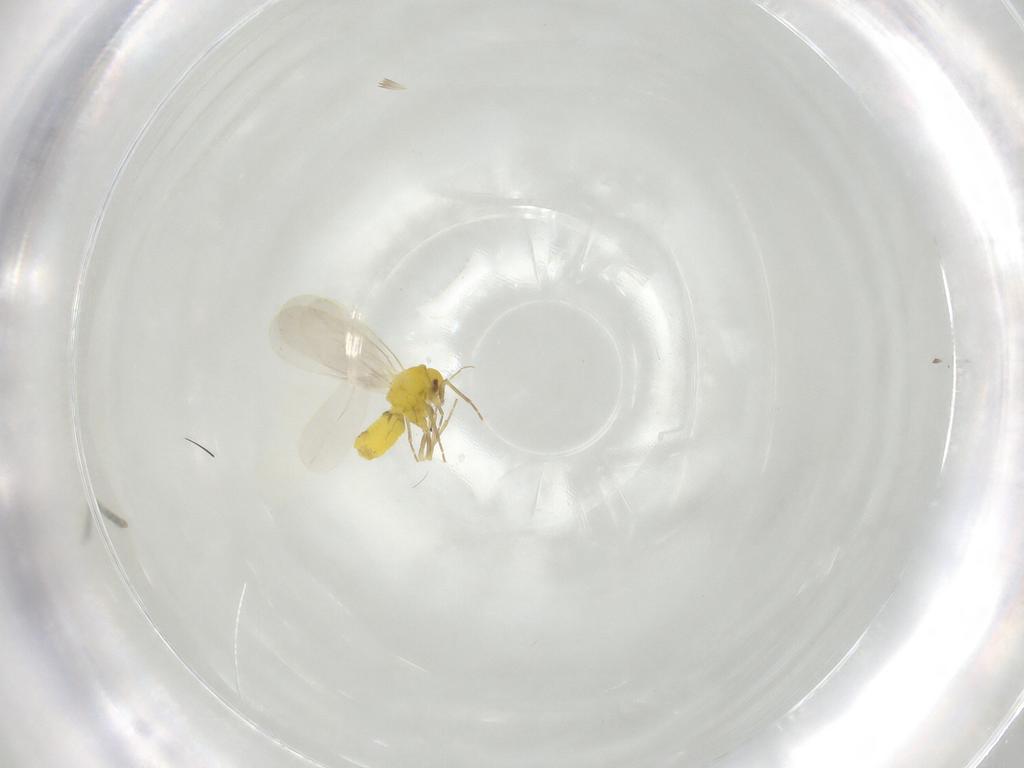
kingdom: Animalia
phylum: Arthropoda
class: Insecta
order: Hemiptera
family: Aleyrodidae
